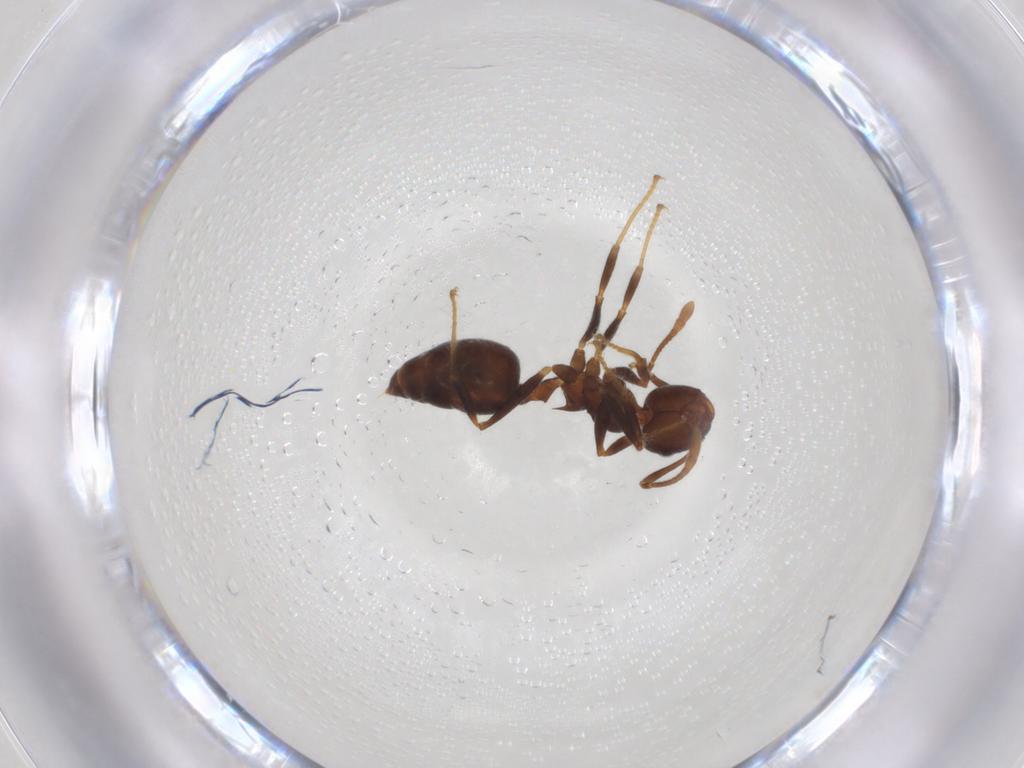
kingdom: Animalia
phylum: Arthropoda
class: Insecta
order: Hymenoptera
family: Formicidae
